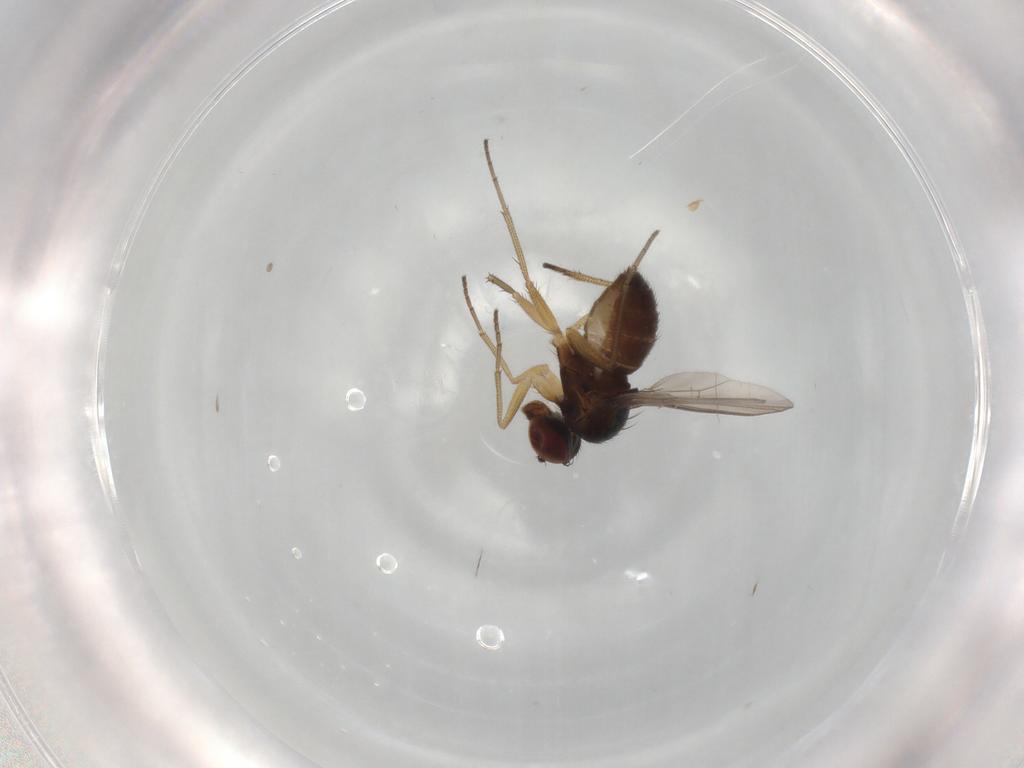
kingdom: Animalia
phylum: Arthropoda
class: Insecta
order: Diptera
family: Dolichopodidae
